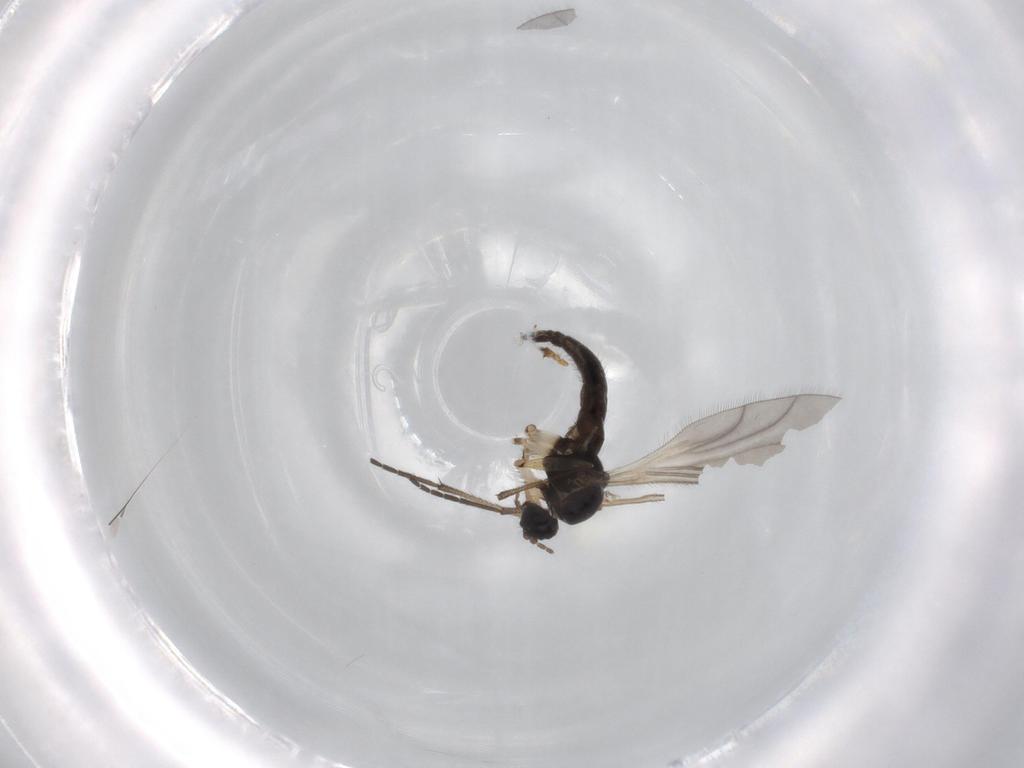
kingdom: Animalia
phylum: Arthropoda
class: Insecta
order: Diptera
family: Sciaridae
